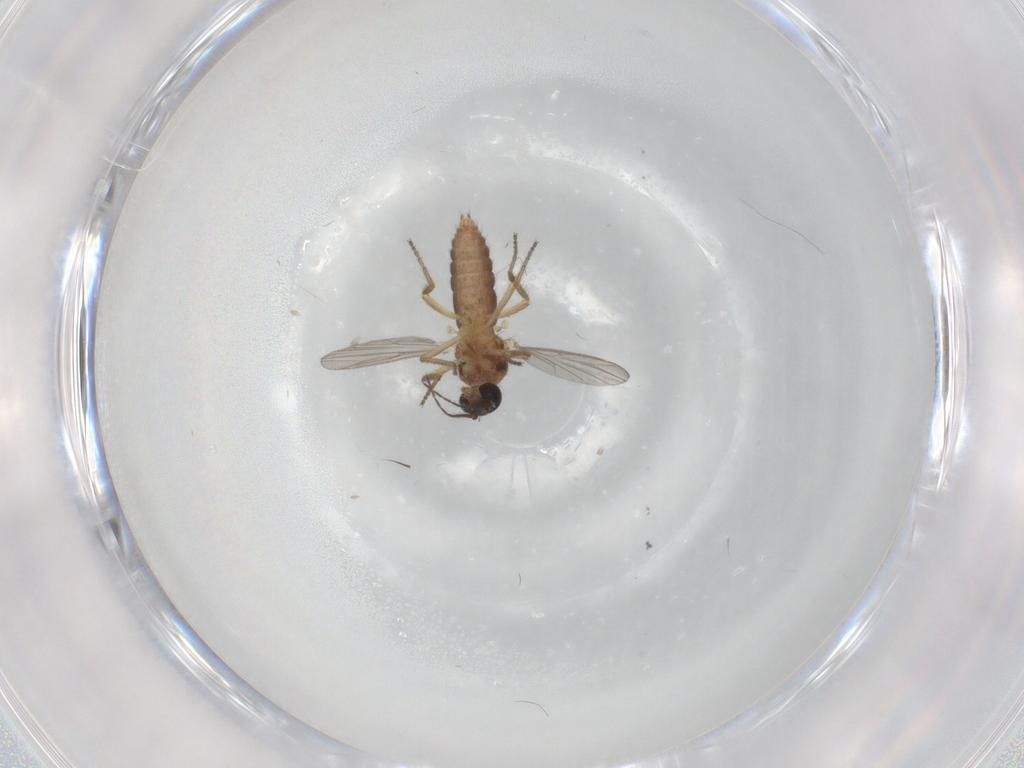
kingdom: Animalia
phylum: Arthropoda
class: Insecta
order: Diptera
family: Ceratopogonidae
